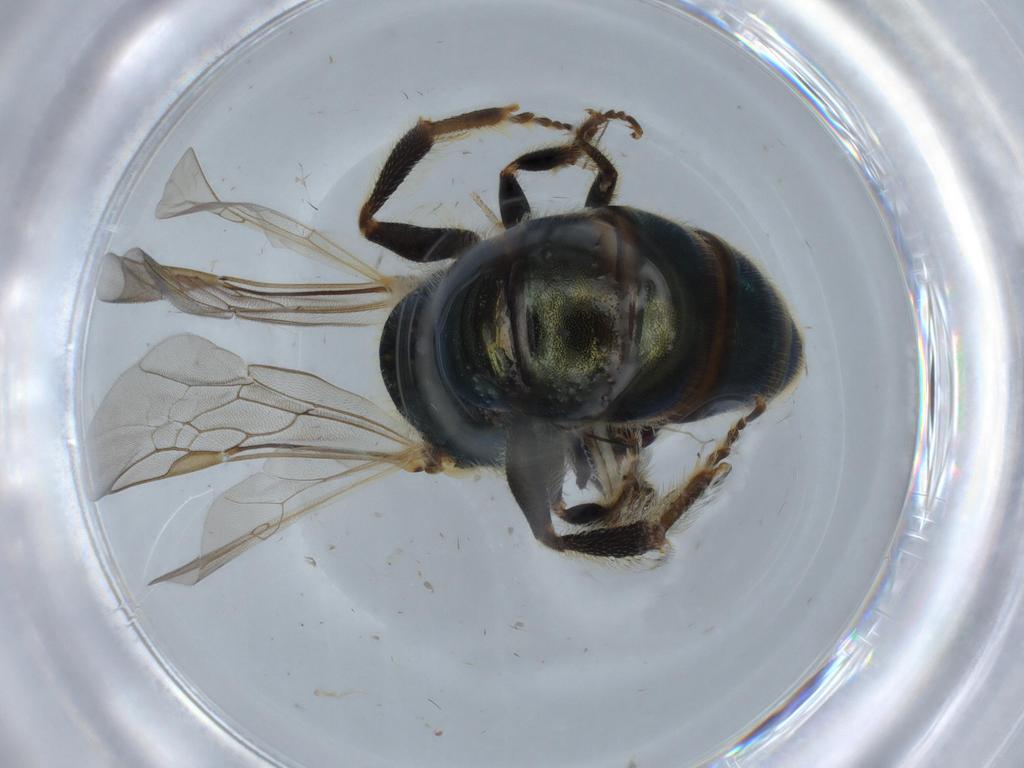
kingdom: Animalia
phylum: Arthropoda
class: Insecta
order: Hymenoptera
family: Halictidae
